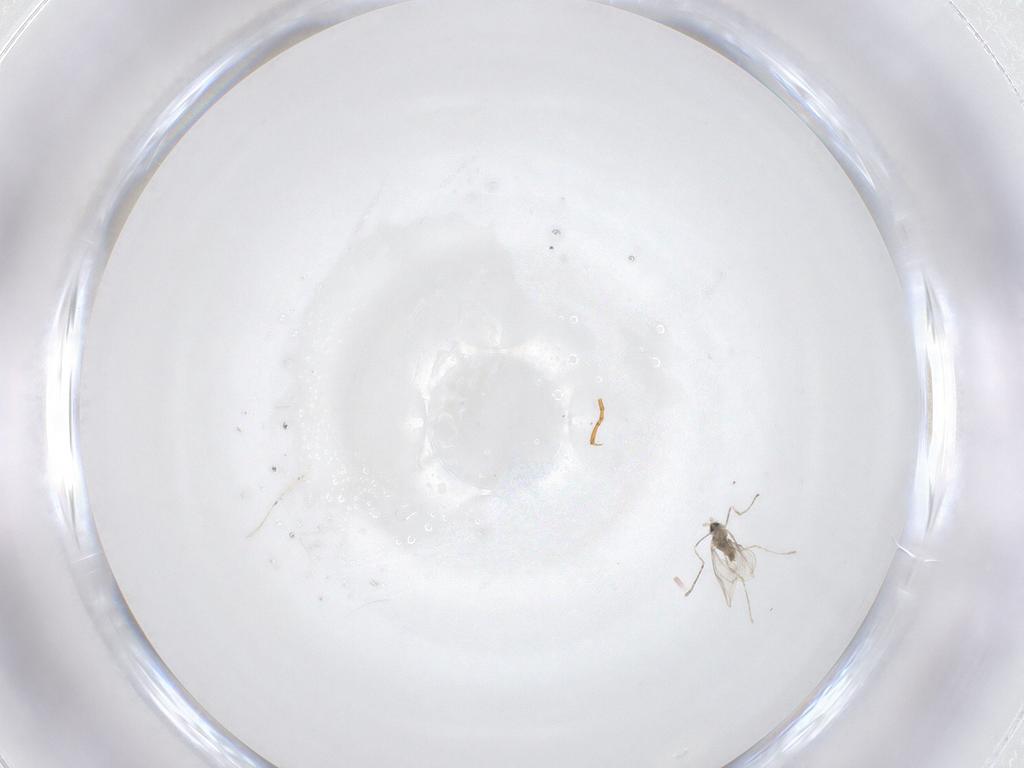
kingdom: Animalia
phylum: Arthropoda
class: Insecta
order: Diptera
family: Cecidomyiidae
